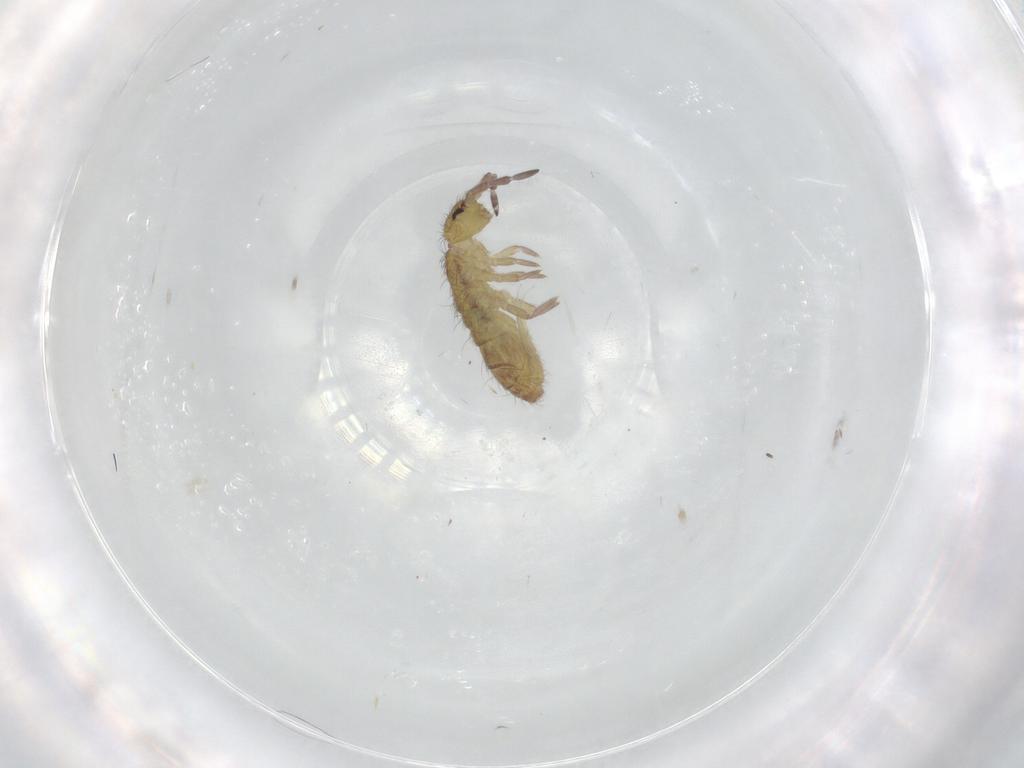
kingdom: Animalia
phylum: Arthropoda
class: Collembola
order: Entomobryomorpha
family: Isotomidae
